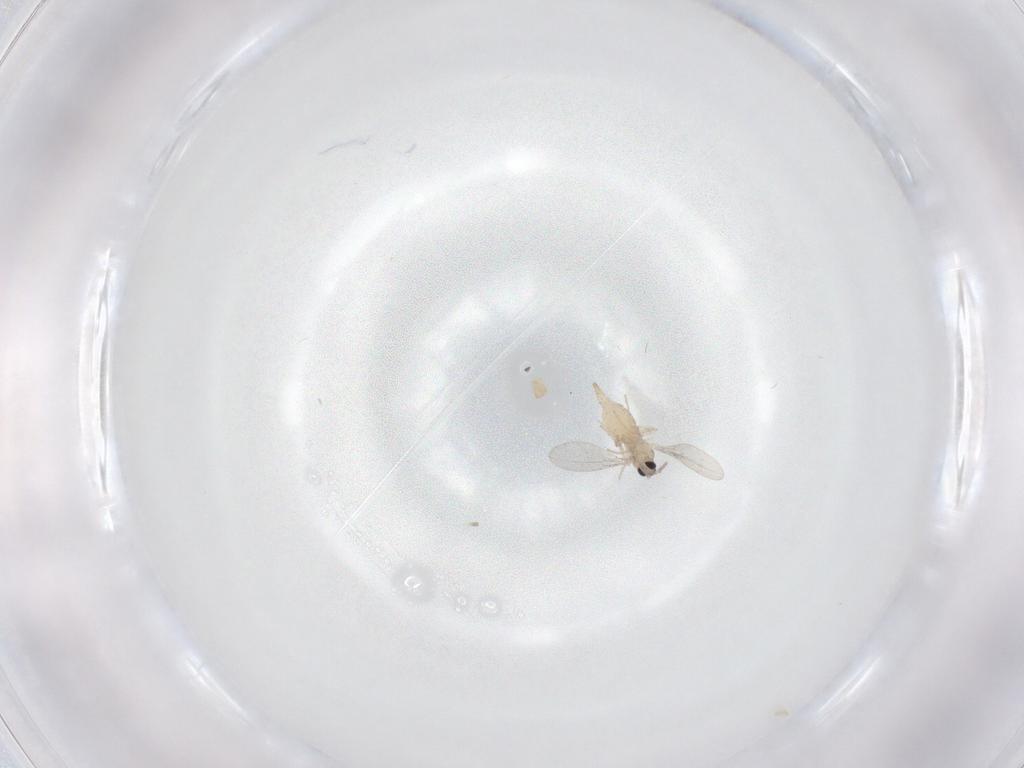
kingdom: Animalia
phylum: Arthropoda
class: Insecta
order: Diptera
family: Cecidomyiidae
